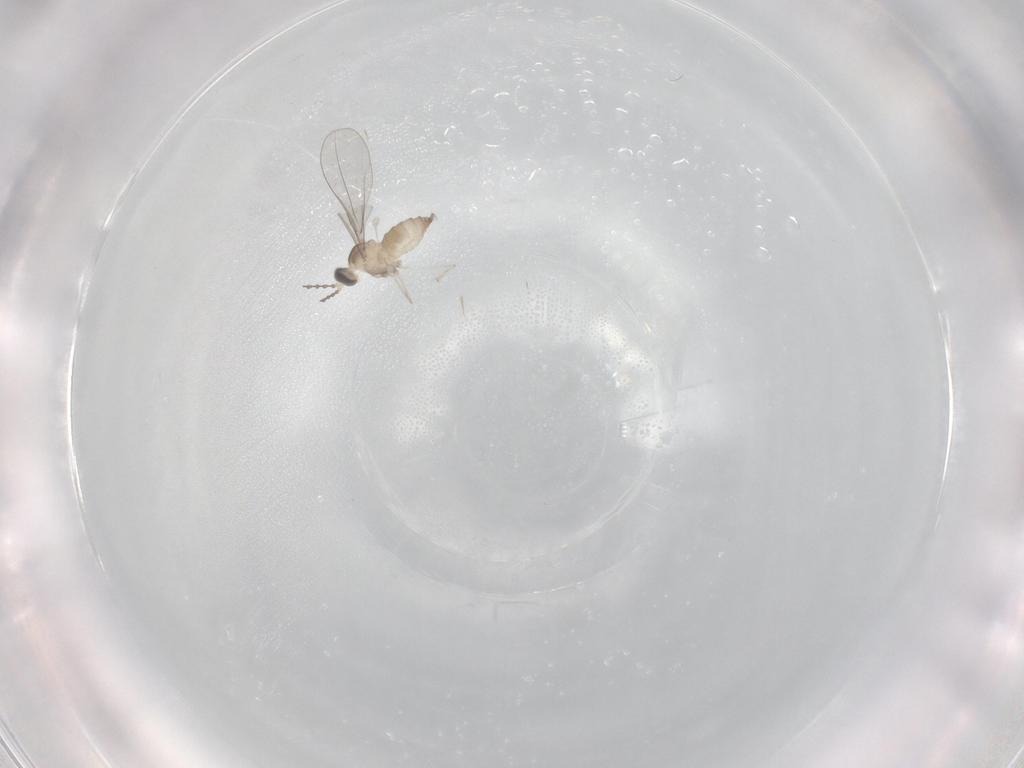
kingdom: Animalia
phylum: Arthropoda
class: Insecta
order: Diptera
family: Cecidomyiidae
